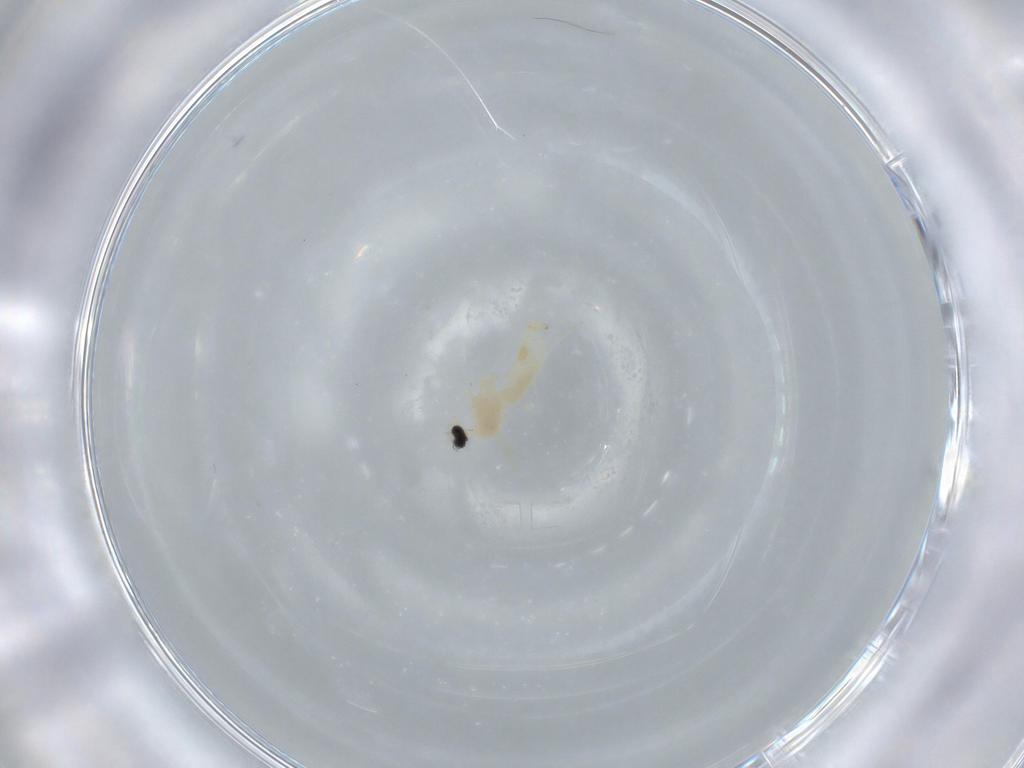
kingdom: Animalia
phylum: Arthropoda
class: Insecta
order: Diptera
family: Cecidomyiidae
